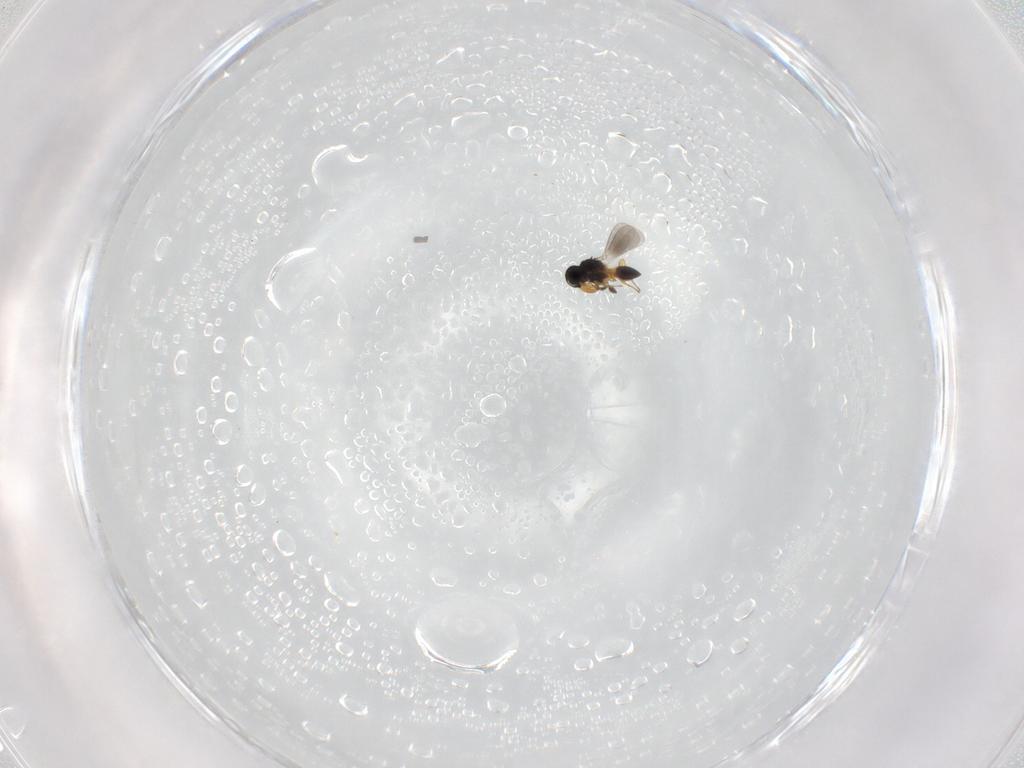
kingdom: Animalia
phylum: Arthropoda
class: Insecta
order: Hymenoptera
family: Platygastridae
